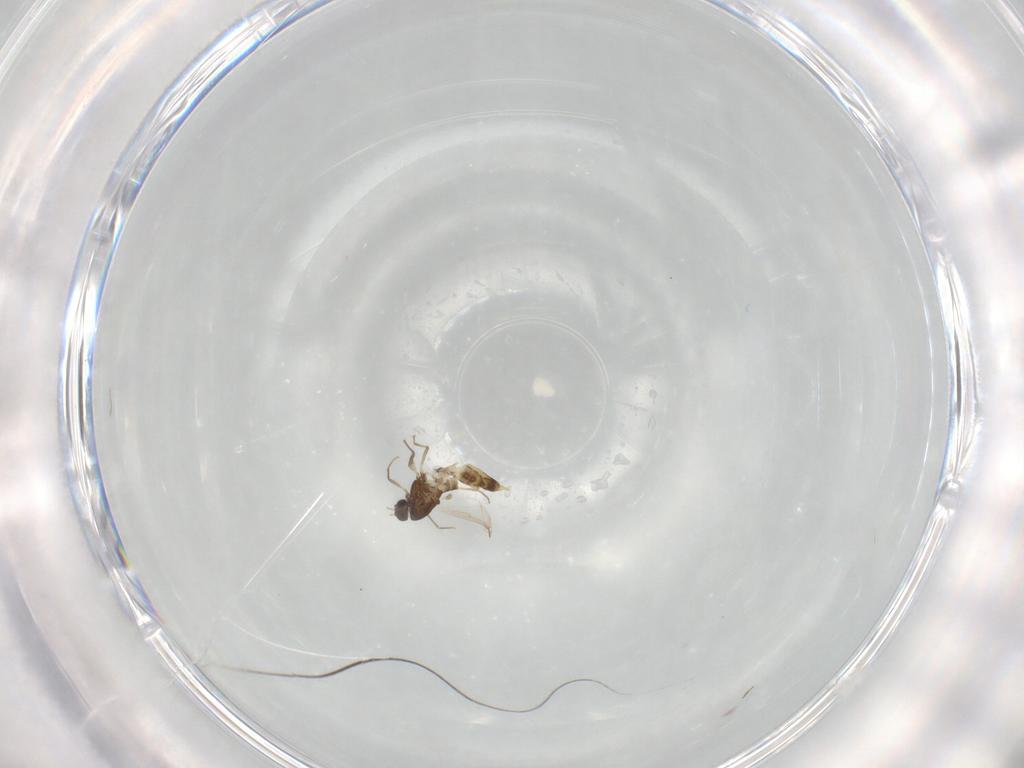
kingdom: Animalia
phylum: Arthropoda
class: Insecta
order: Diptera
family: Chironomidae
